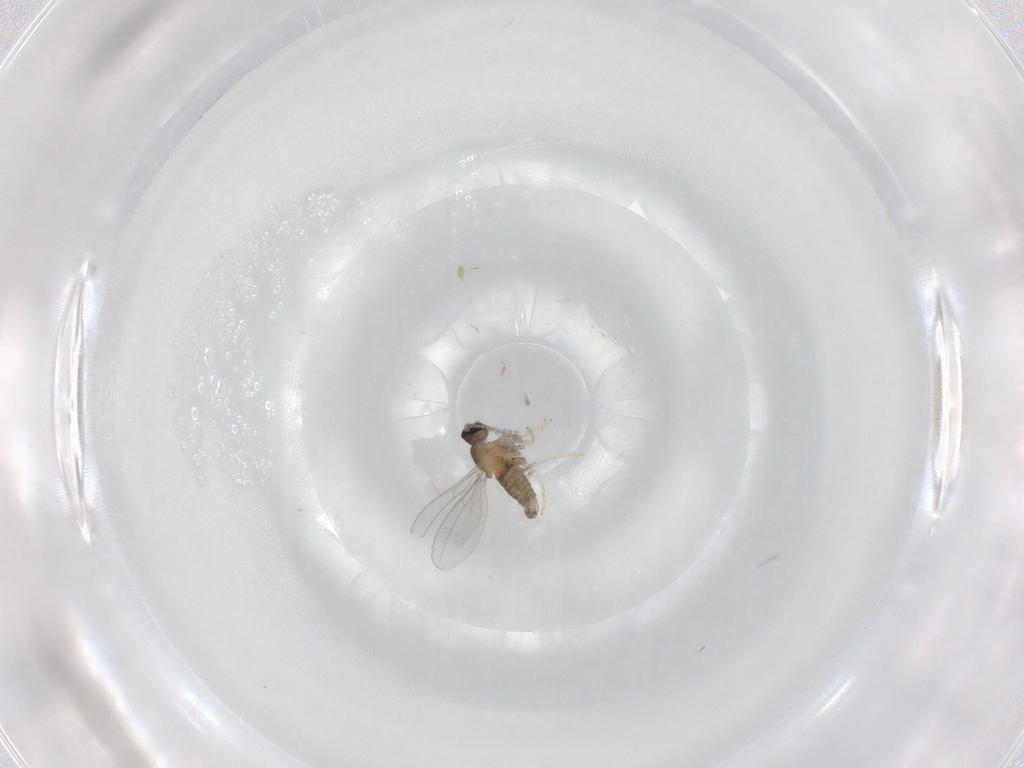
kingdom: Animalia
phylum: Arthropoda
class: Insecta
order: Diptera
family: Cecidomyiidae
